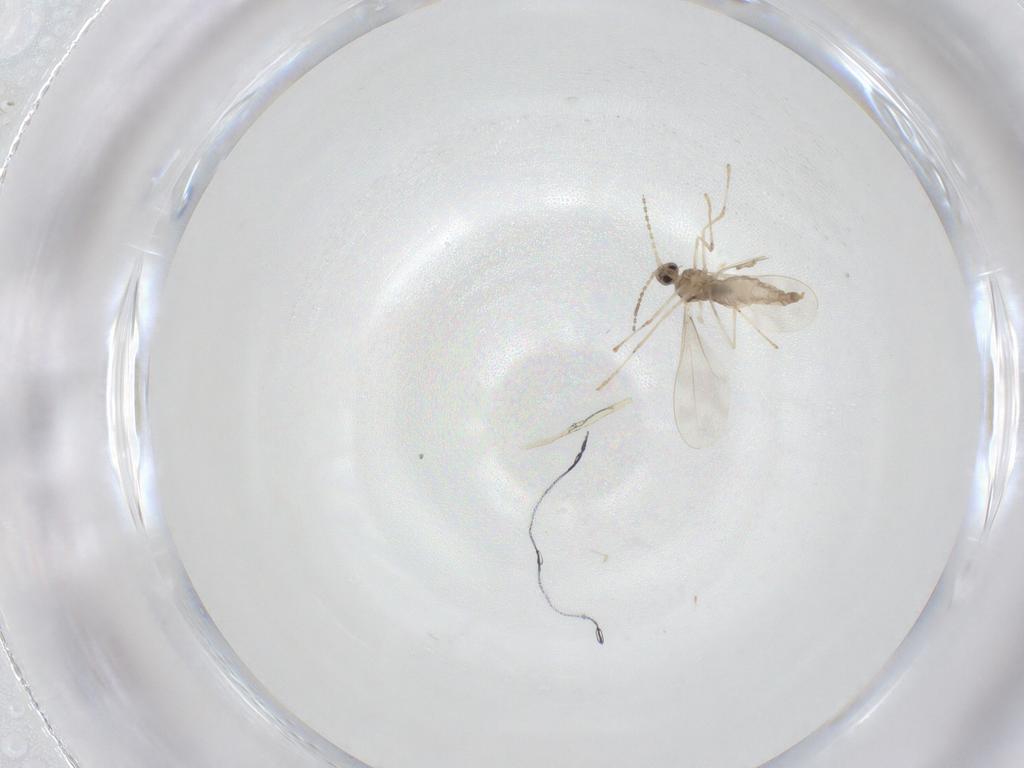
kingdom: Animalia
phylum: Arthropoda
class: Insecta
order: Diptera
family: Cecidomyiidae
